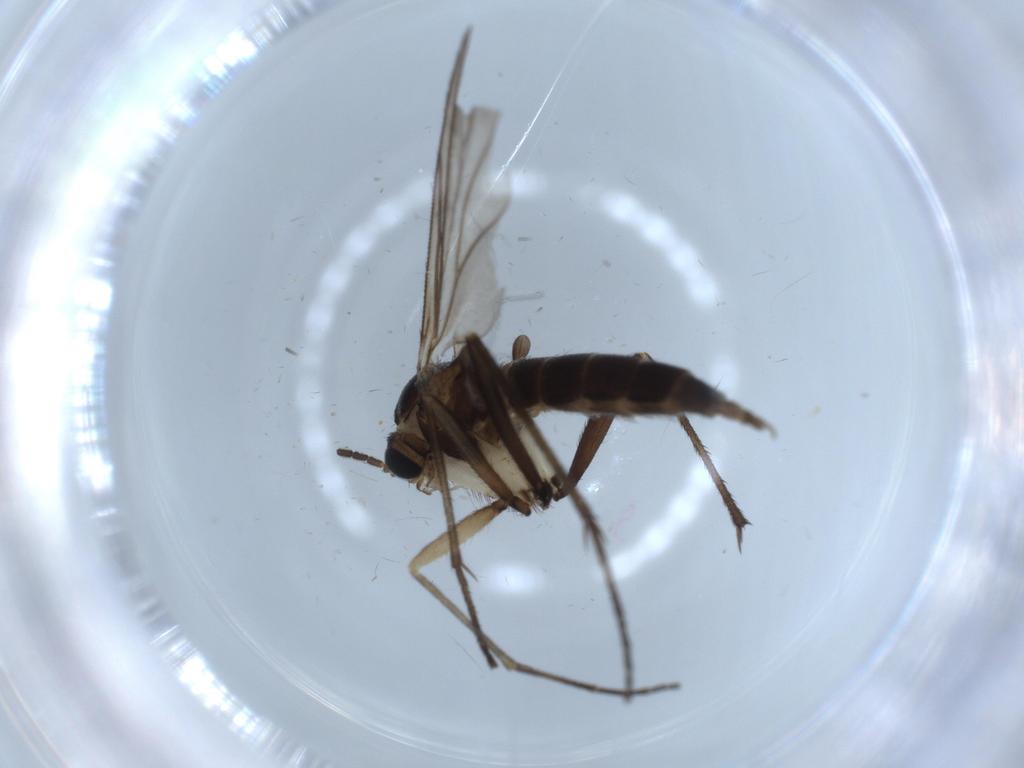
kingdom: Animalia
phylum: Arthropoda
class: Insecta
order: Diptera
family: Sciaridae
